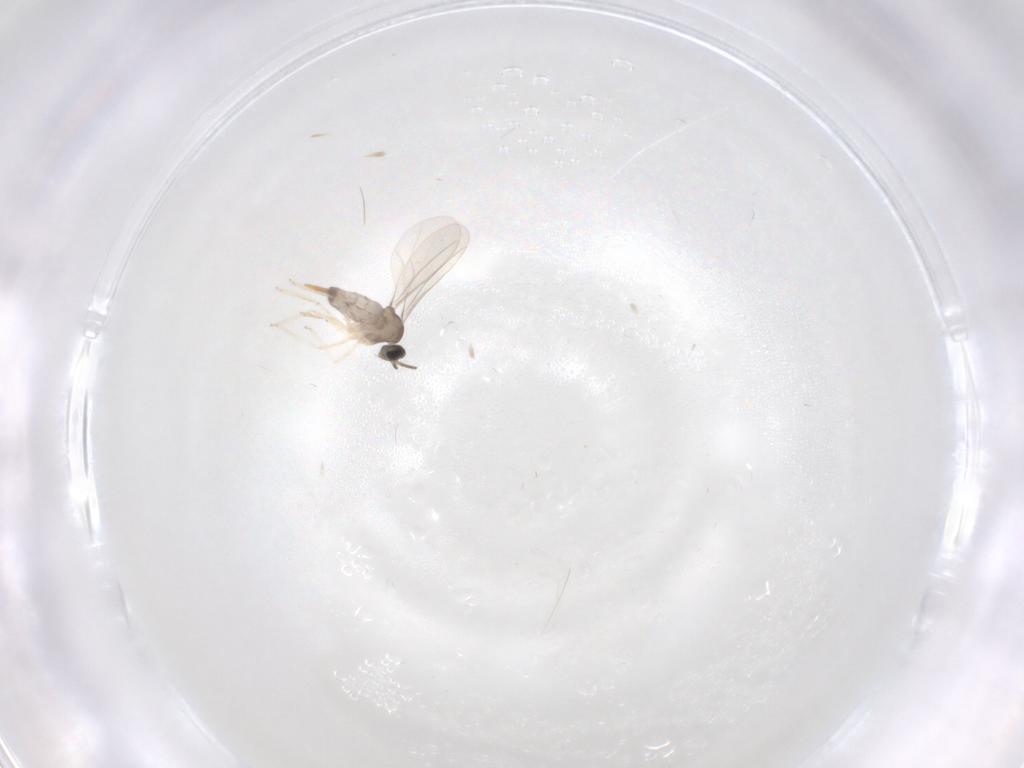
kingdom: Animalia
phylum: Arthropoda
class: Insecta
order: Diptera
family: Cecidomyiidae
